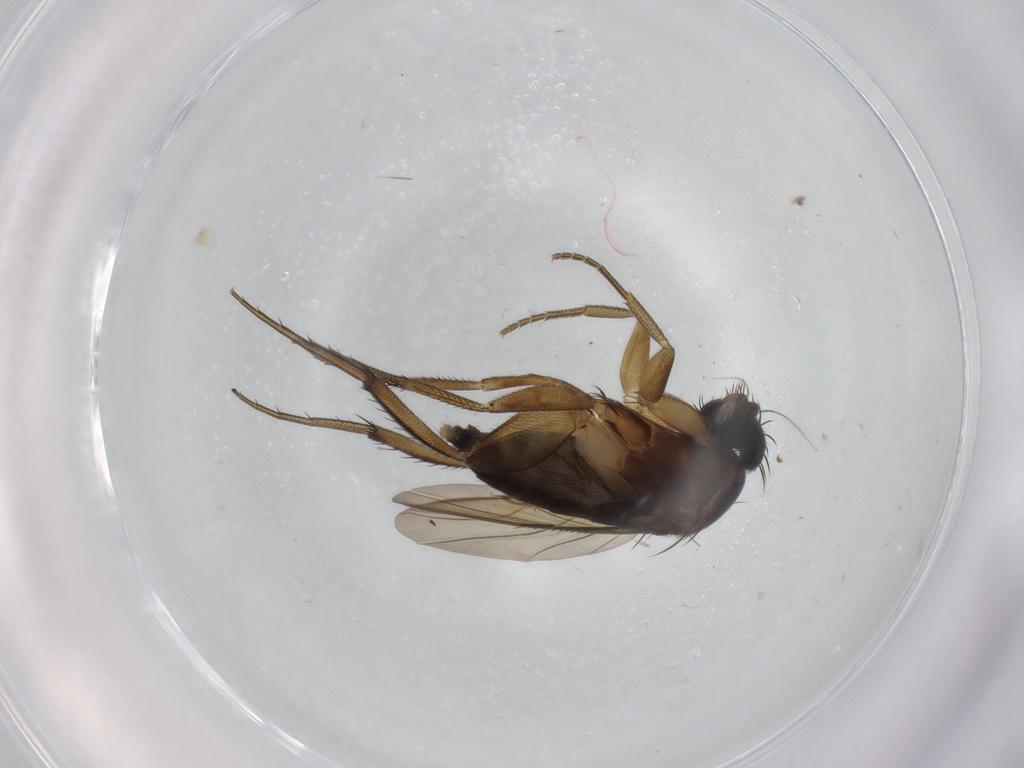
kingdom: Animalia
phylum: Arthropoda
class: Insecta
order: Diptera
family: Phoridae
